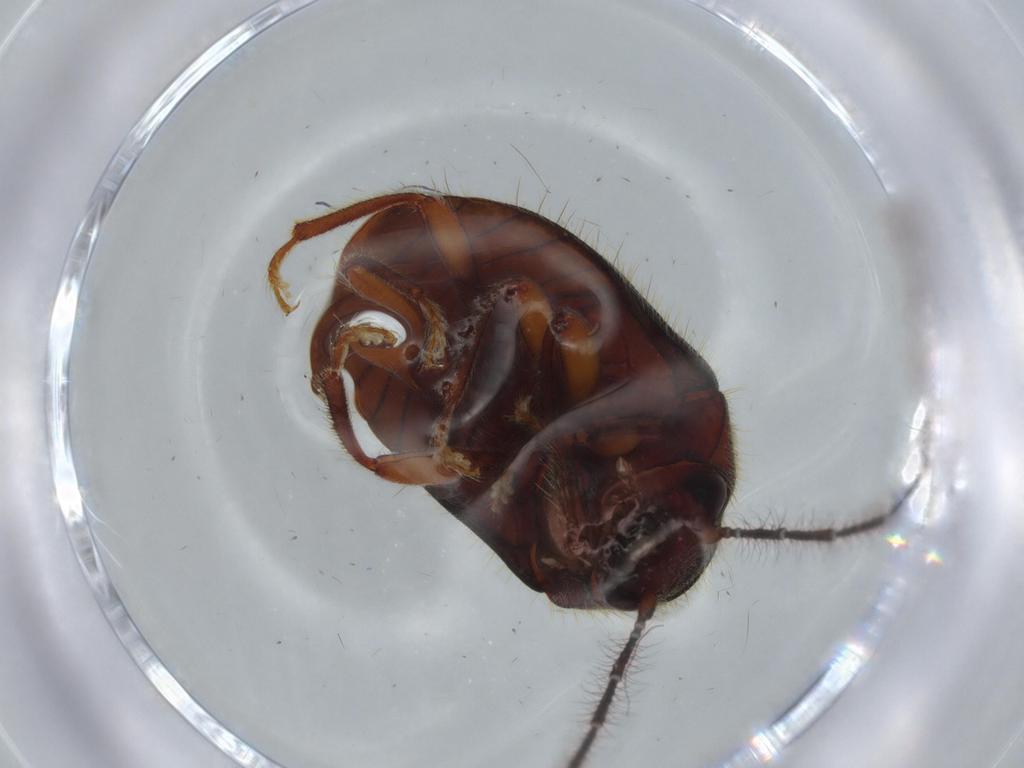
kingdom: Animalia
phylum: Arthropoda
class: Insecta
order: Coleoptera
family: Artematopodidae
